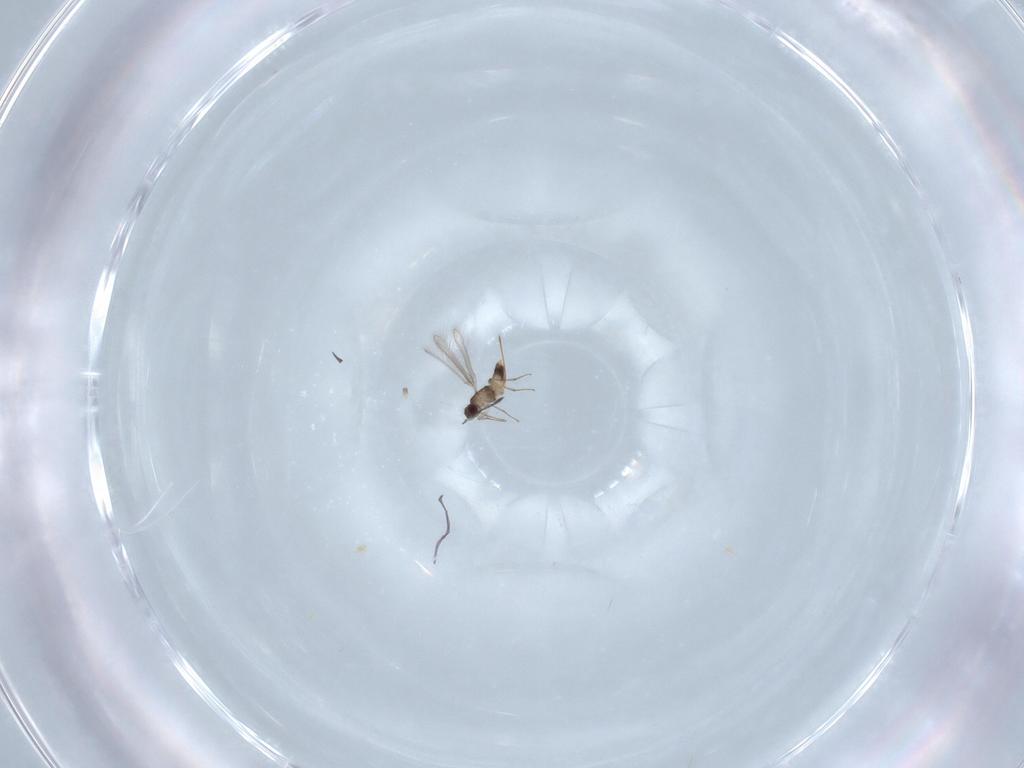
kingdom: Animalia
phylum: Arthropoda
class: Insecta
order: Hymenoptera
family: Mymaridae
